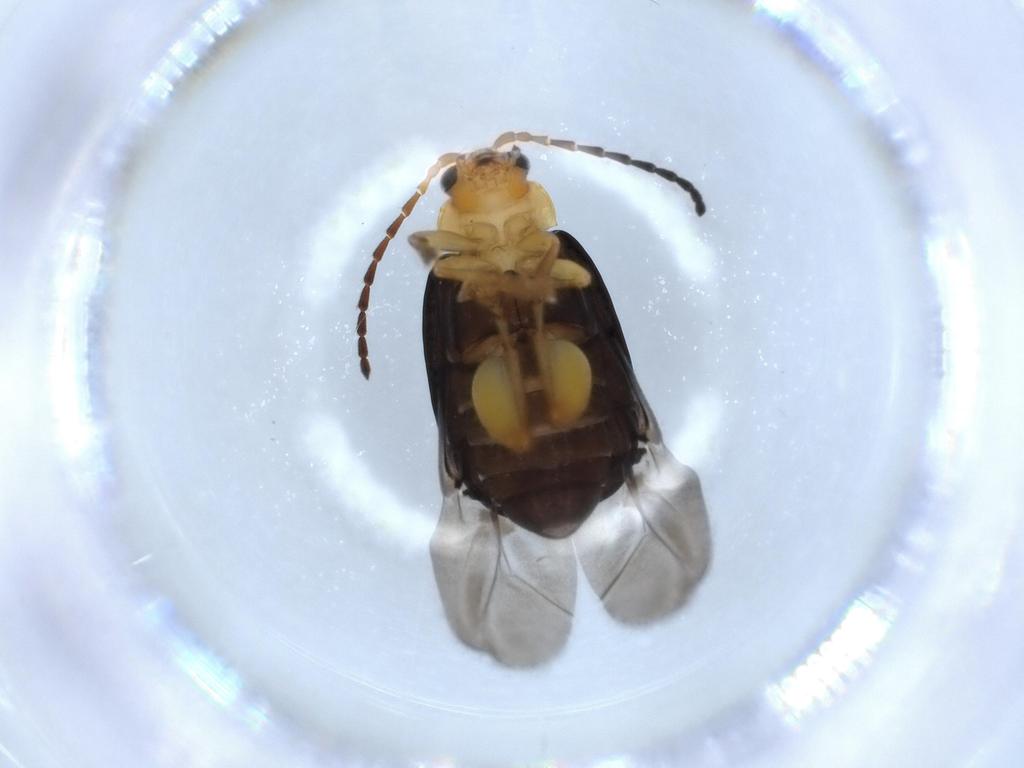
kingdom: Animalia
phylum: Arthropoda
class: Insecta
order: Coleoptera
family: Chrysomelidae
